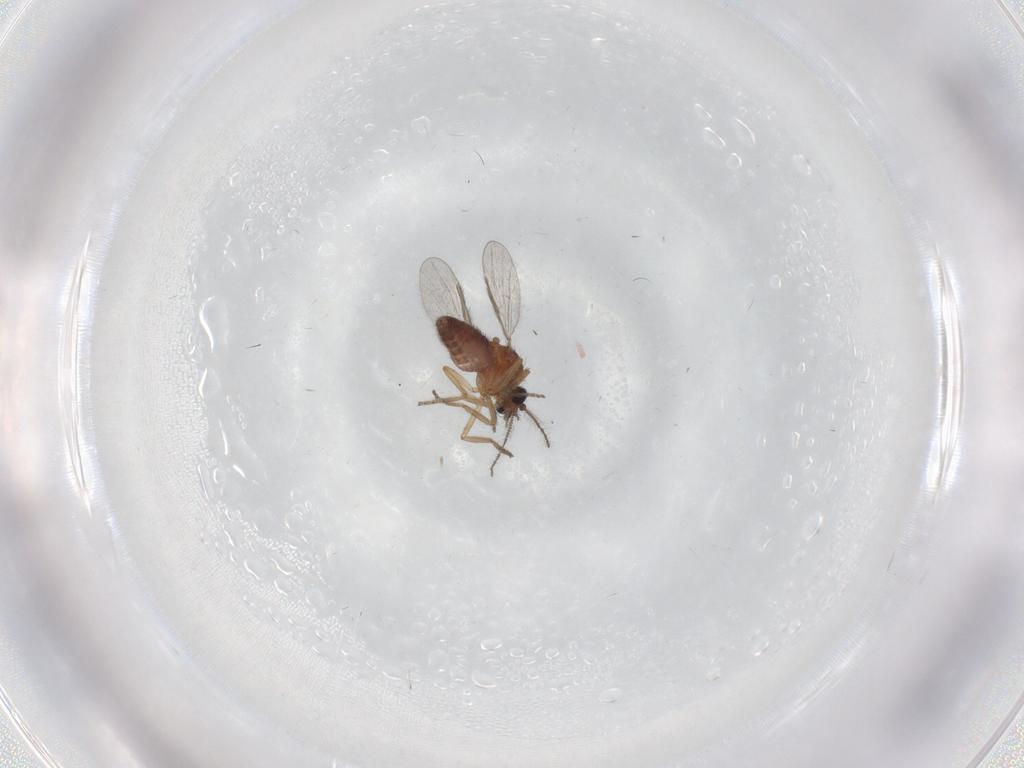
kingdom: Animalia
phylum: Arthropoda
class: Insecta
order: Diptera
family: Ceratopogonidae
